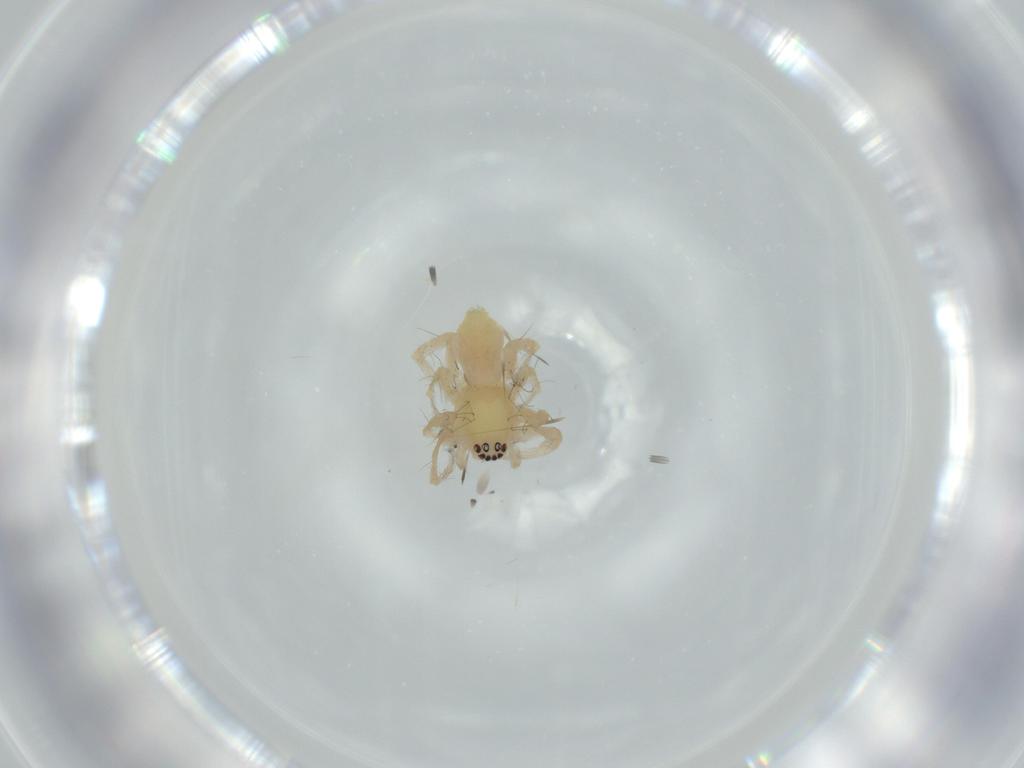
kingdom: Animalia
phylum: Arthropoda
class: Arachnida
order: Araneae
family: Anyphaenidae
